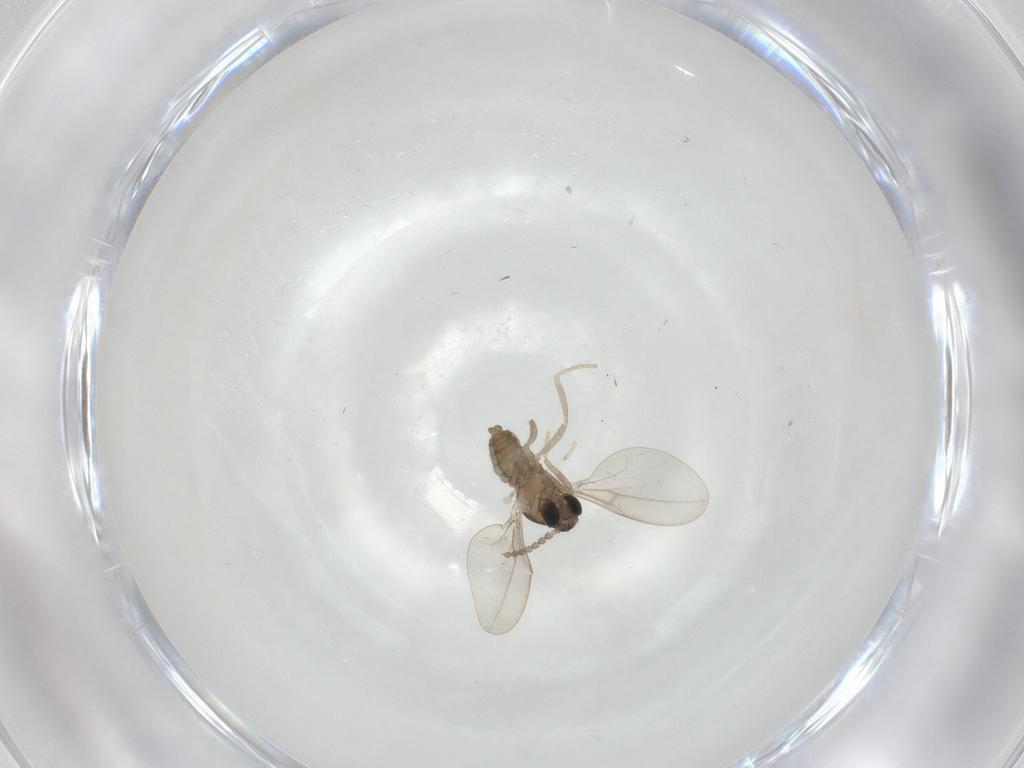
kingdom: Animalia
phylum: Arthropoda
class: Insecta
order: Diptera
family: Cecidomyiidae
